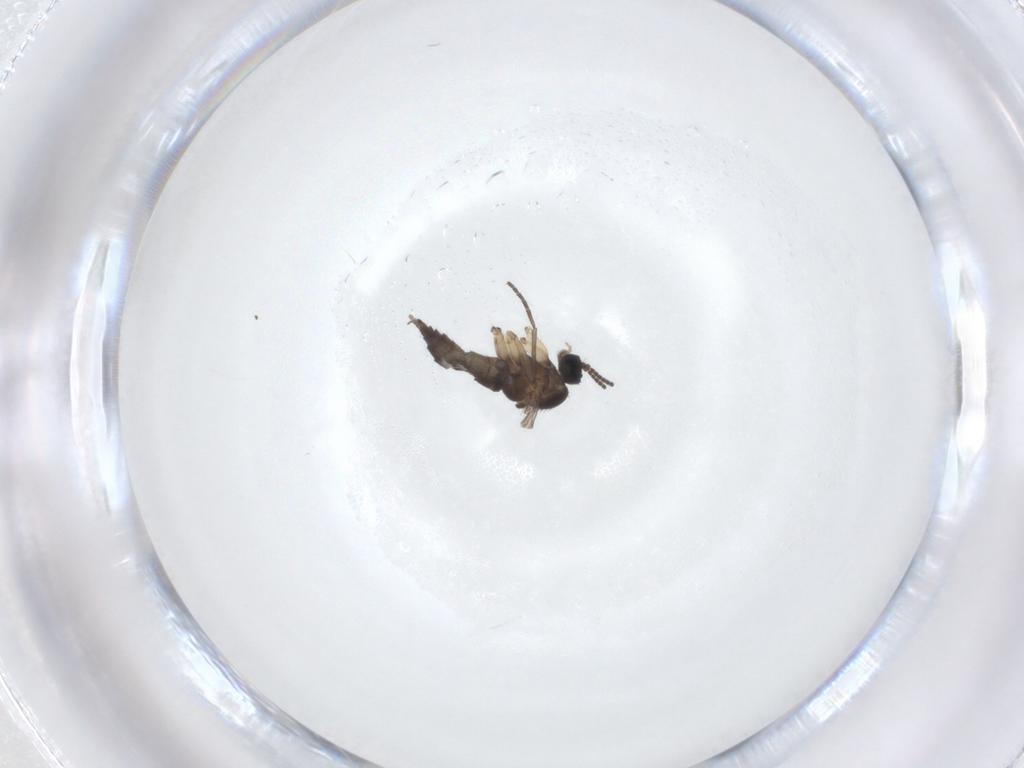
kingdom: Animalia
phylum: Arthropoda
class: Insecta
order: Diptera
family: Sciaridae
